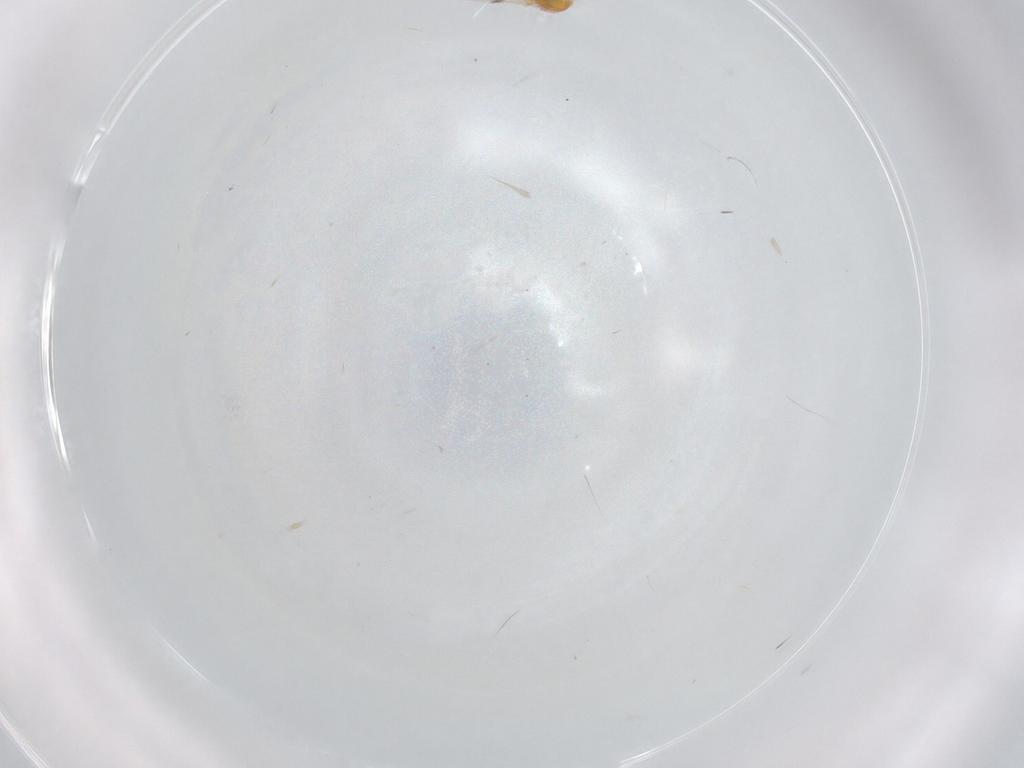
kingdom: Animalia
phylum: Arthropoda
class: Insecta
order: Hymenoptera
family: Scelionidae
